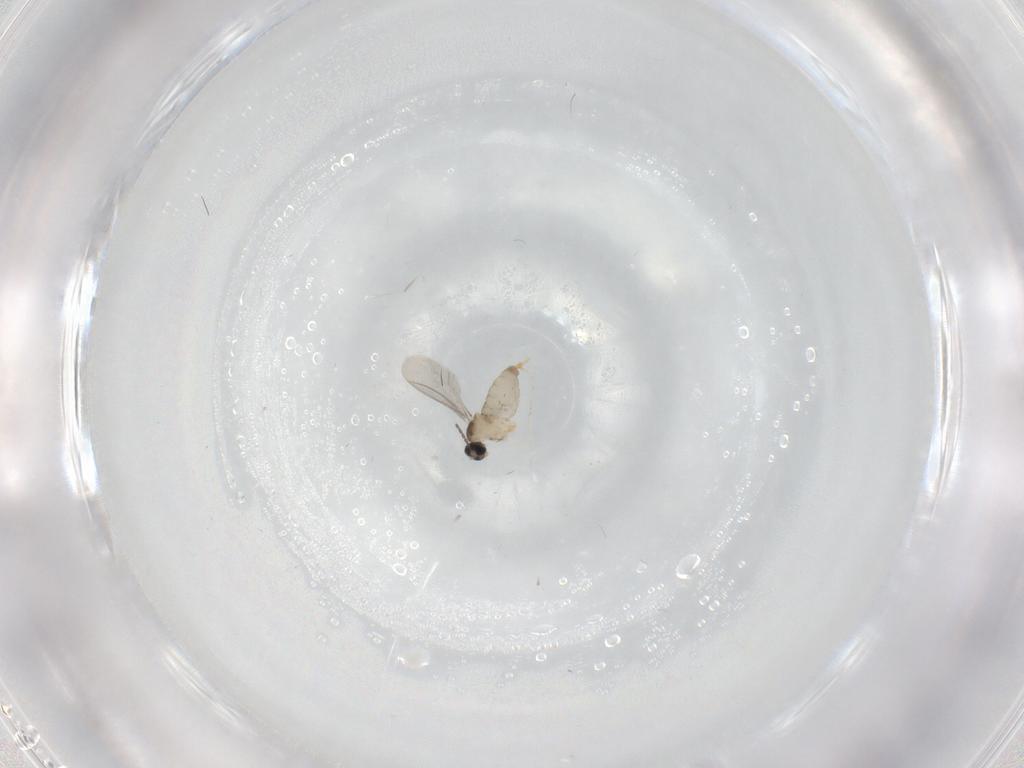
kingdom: Animalia
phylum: Arthropoda
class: Insecta
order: Diptera
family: Cecidomyiidae
